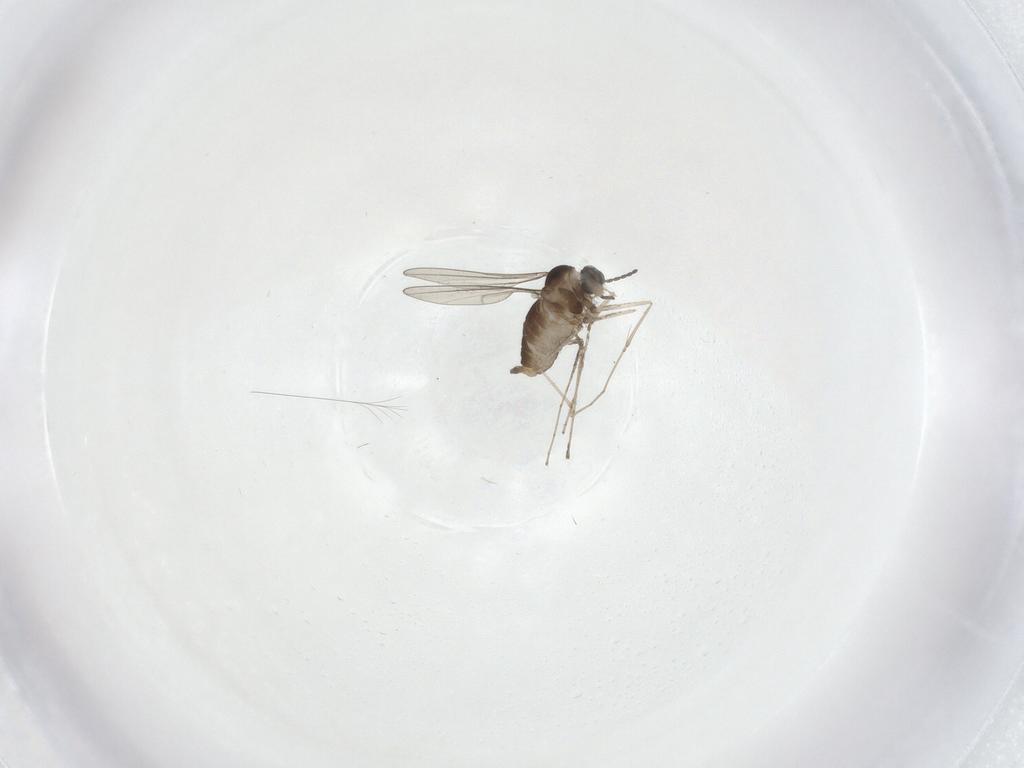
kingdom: Animalia
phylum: Arthropoda
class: Insecta
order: Diptera
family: Cecidomyiidae
